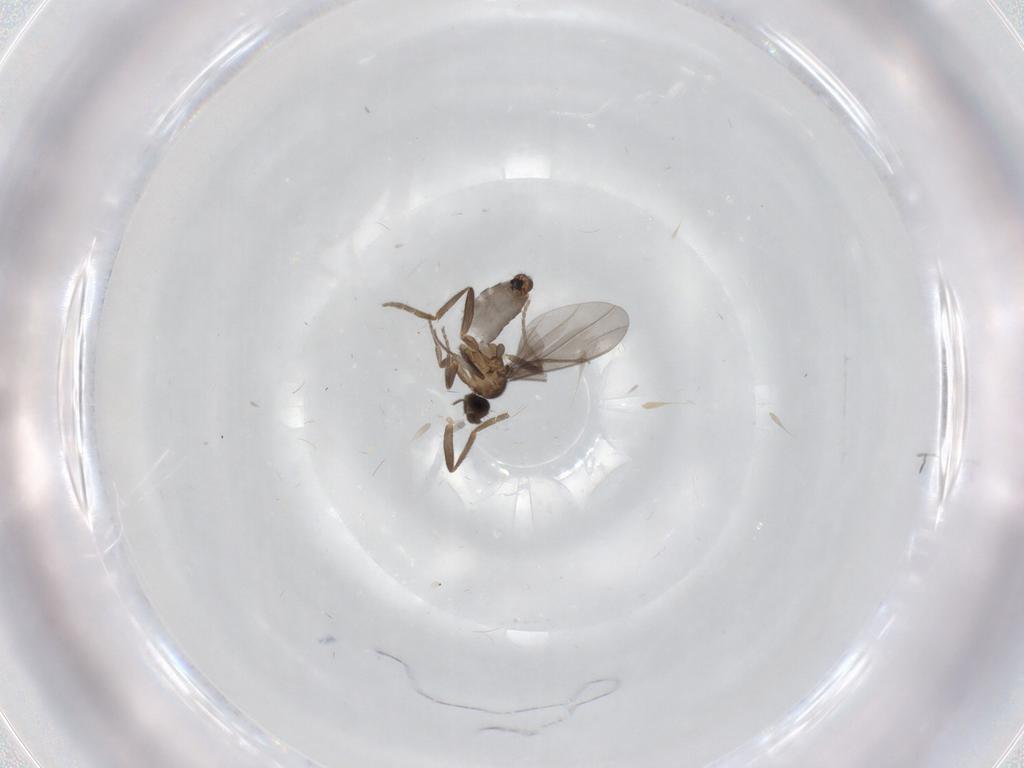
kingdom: Animalia
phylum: Arthropoda
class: Insecta
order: Diptera
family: Phoridae
